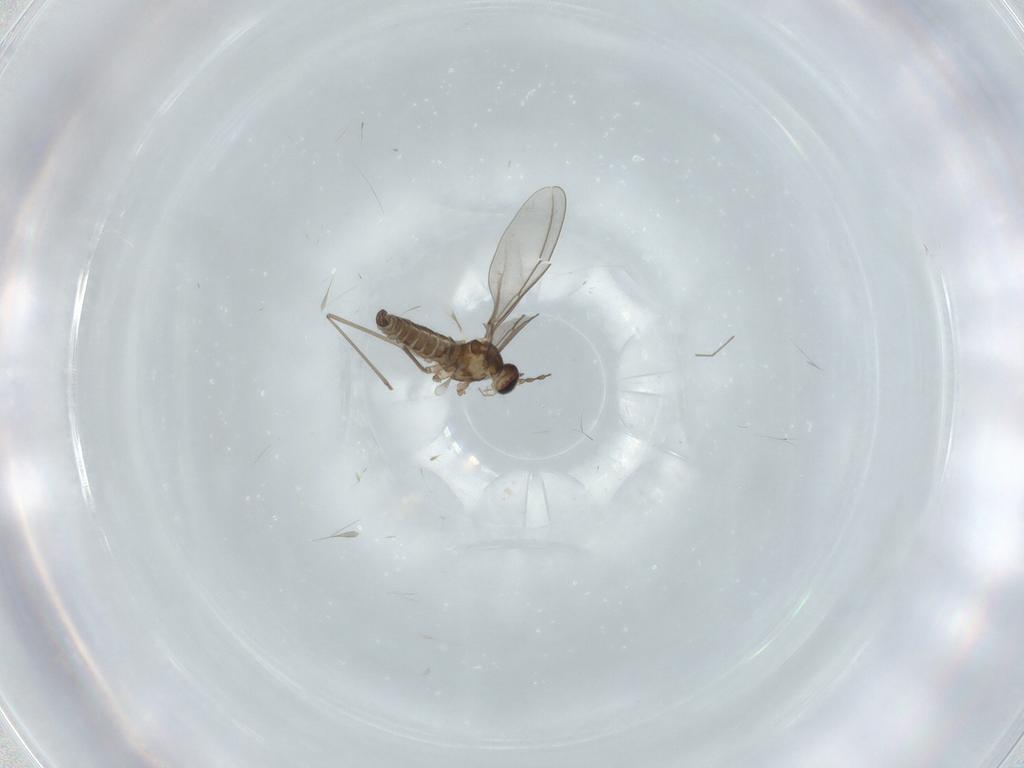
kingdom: Animalia
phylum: Arthropoda
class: Insecta
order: Diptera
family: Cecidomyiidae
